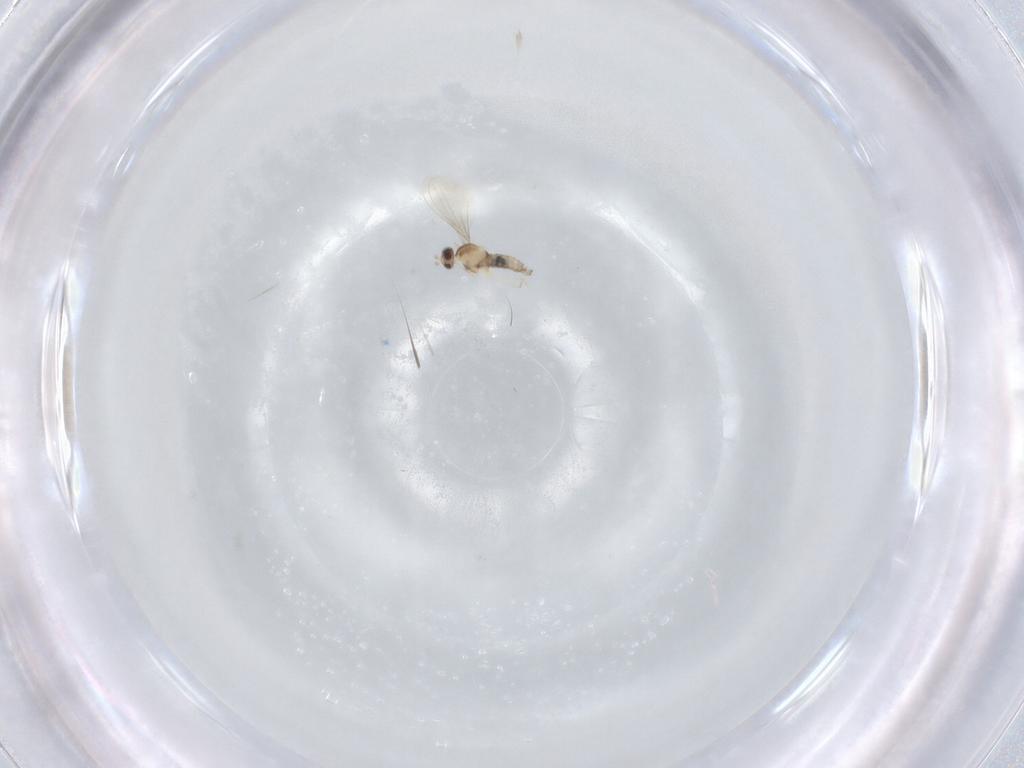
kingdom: Animalia
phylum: Arthropoda
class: Insecta
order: Diptera
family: Cecidomyiidae
